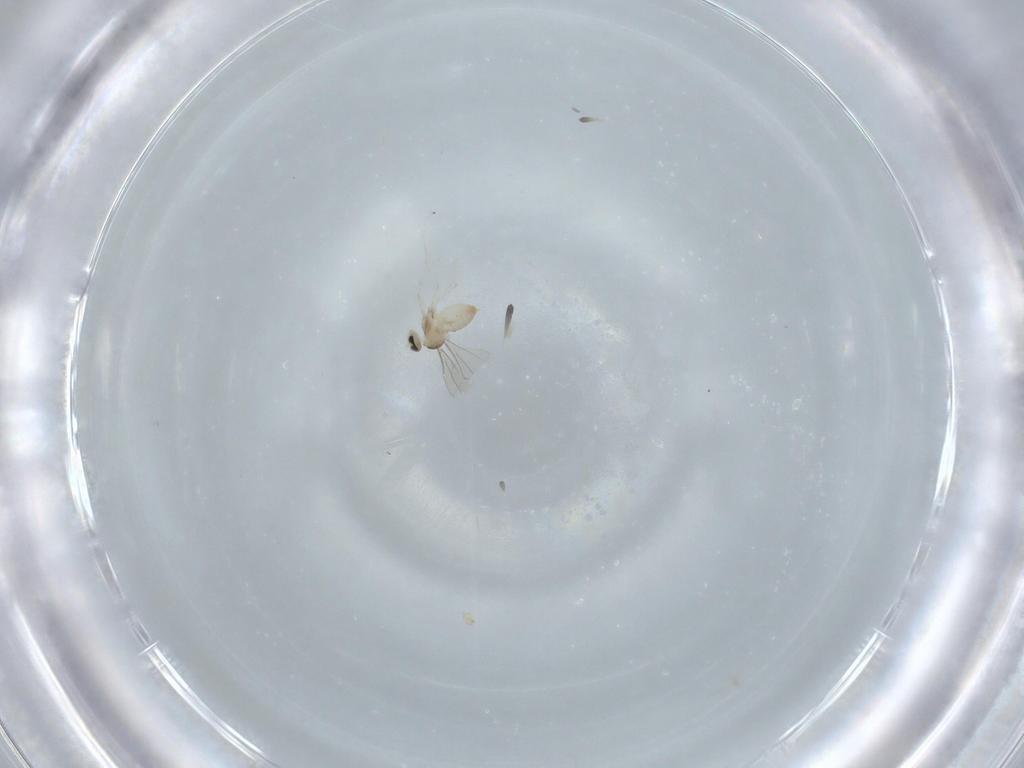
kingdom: Animalia
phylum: Arthropoda
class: Insecta
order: Diptera
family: Cecidomyiidae
